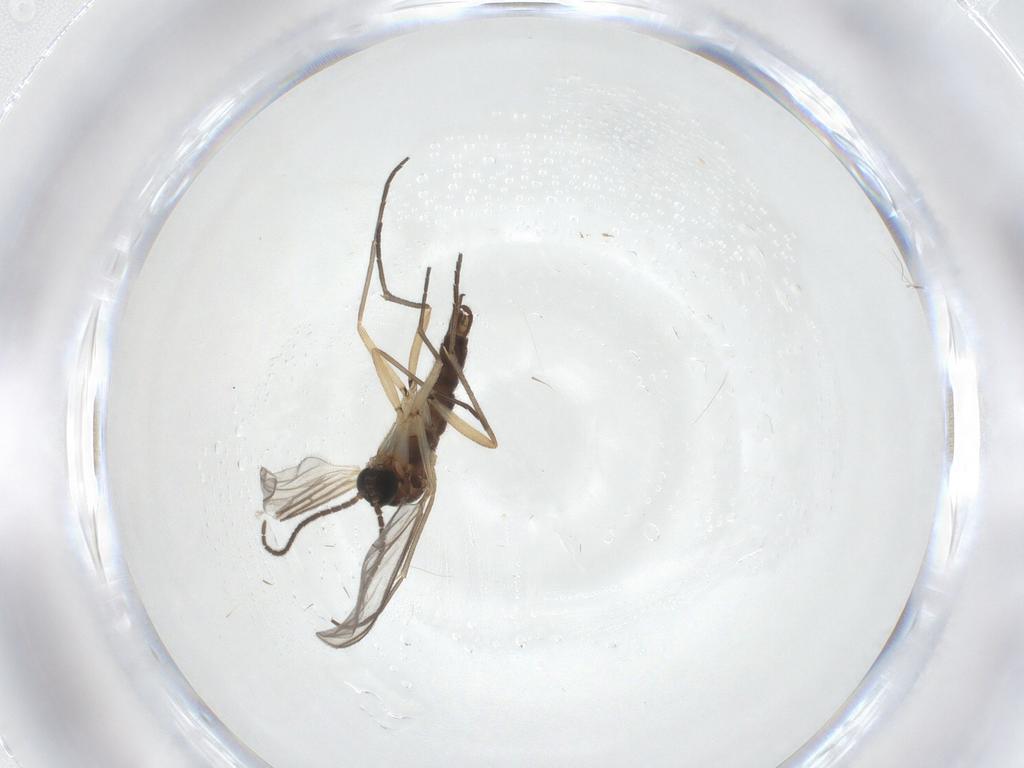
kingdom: Animalia
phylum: Arthropoda
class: Insecta
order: Diptera
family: Sciaridae
